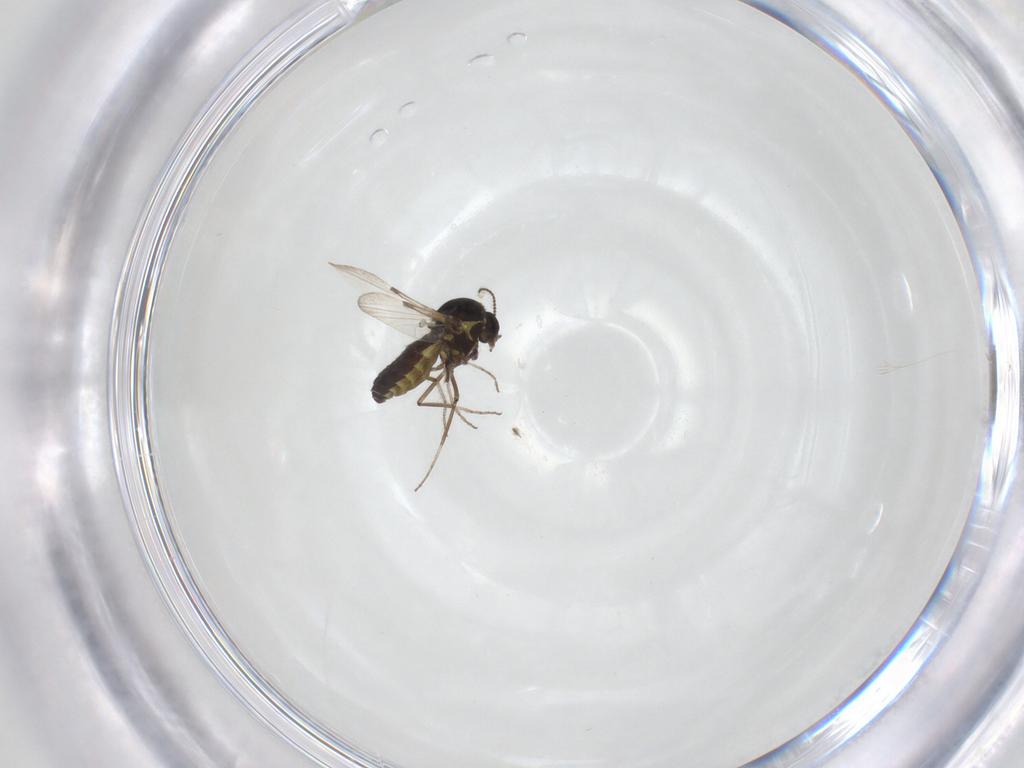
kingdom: Animalia
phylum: Arthropoda
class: Insecta
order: Diptera
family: Ceratopogonidae
